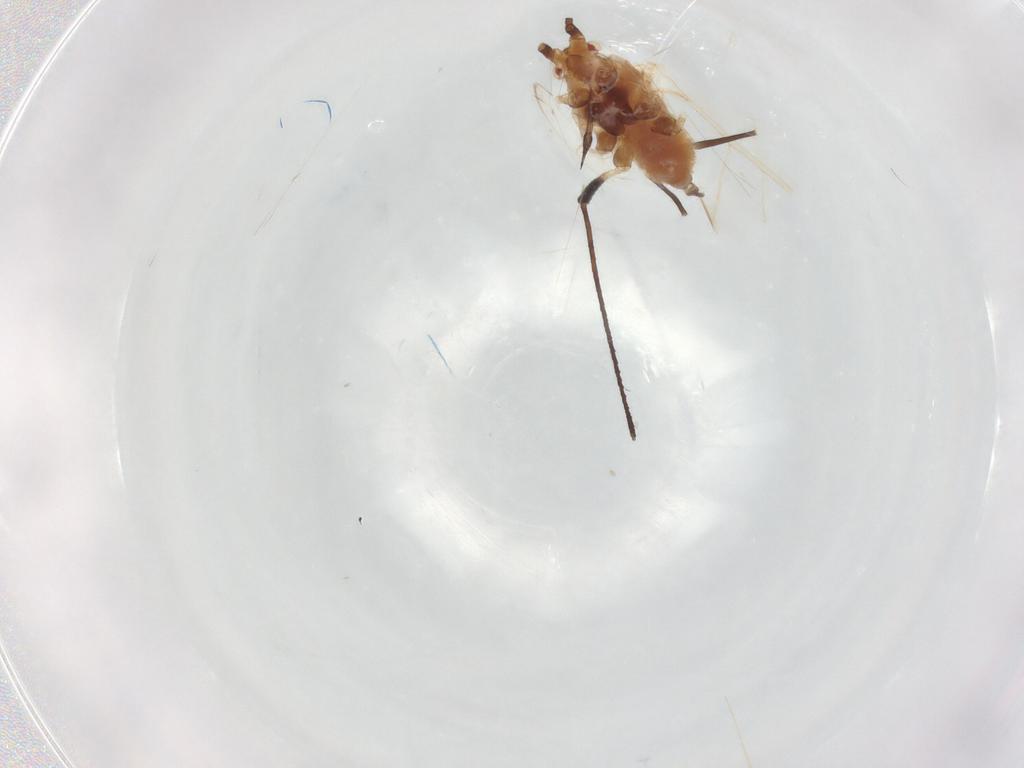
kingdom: Animalia
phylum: Arthropoda
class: Insecta
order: Hemiptera
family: Aphididae
